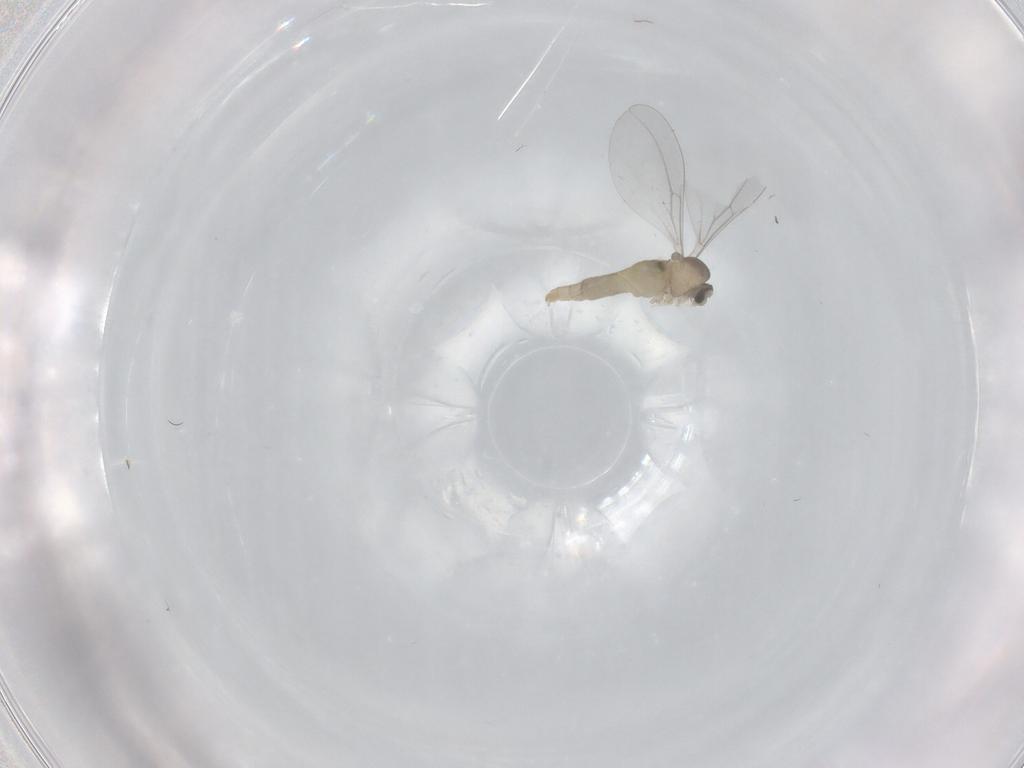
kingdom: Animalia
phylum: Arthropoda
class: Insecta
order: Diptera
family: Cecidomyiidae
